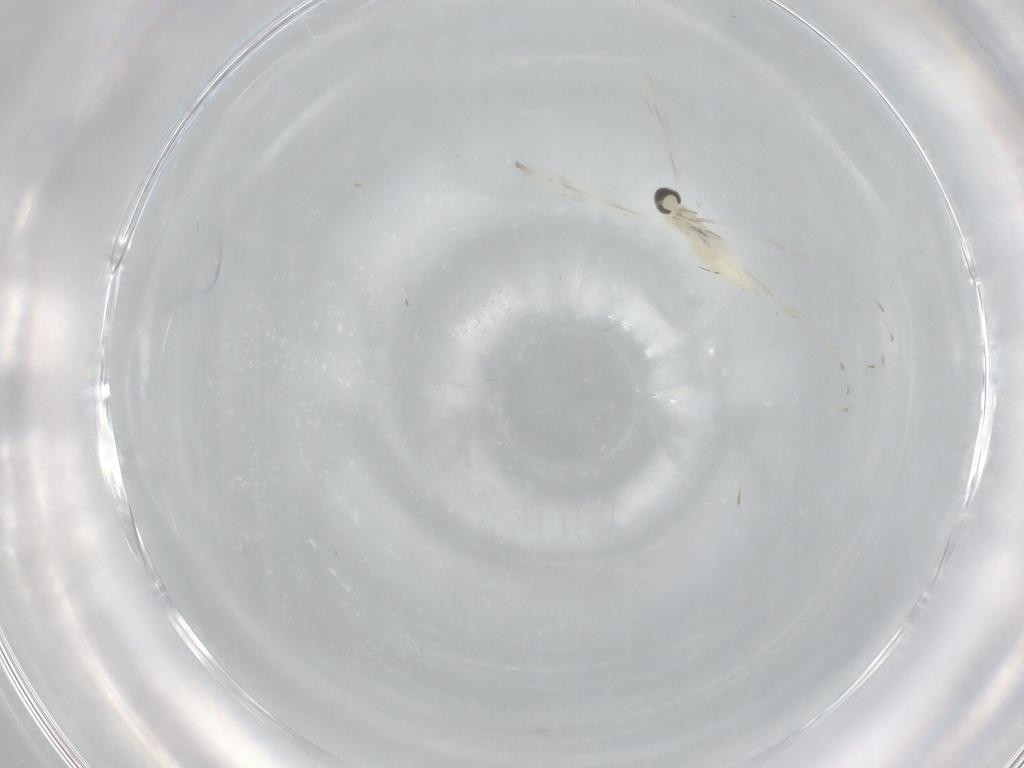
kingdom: Animalia
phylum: Arthropoda
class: Insecta
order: Diptera
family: Cecidomyiidae
